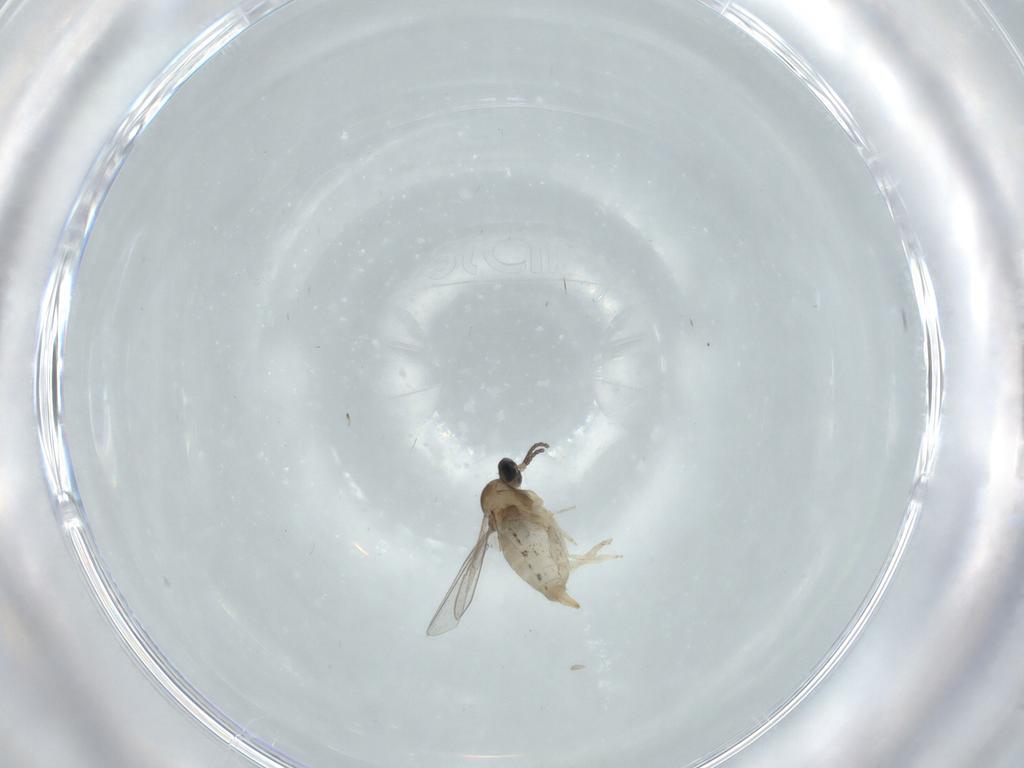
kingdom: Animalia
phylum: Arthropoda
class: Insecta
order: Diptera
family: Cecidomyiidae
